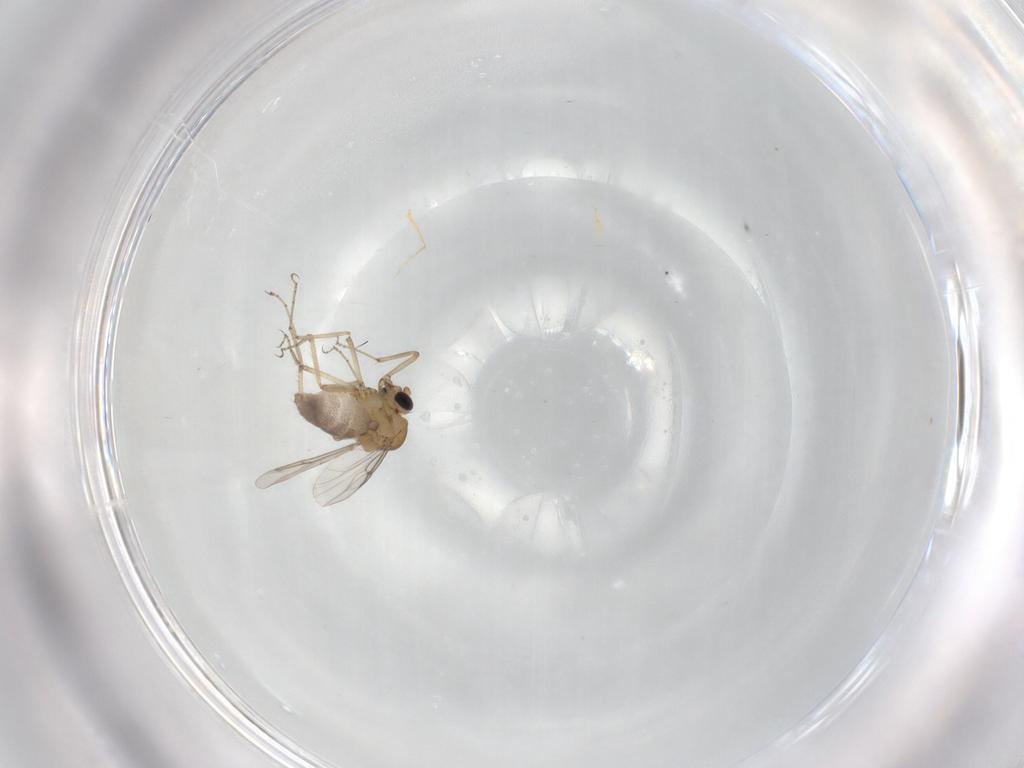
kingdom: Animalia
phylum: Arthropoda
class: Insecta
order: Diptera
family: Ceratopogonidae
